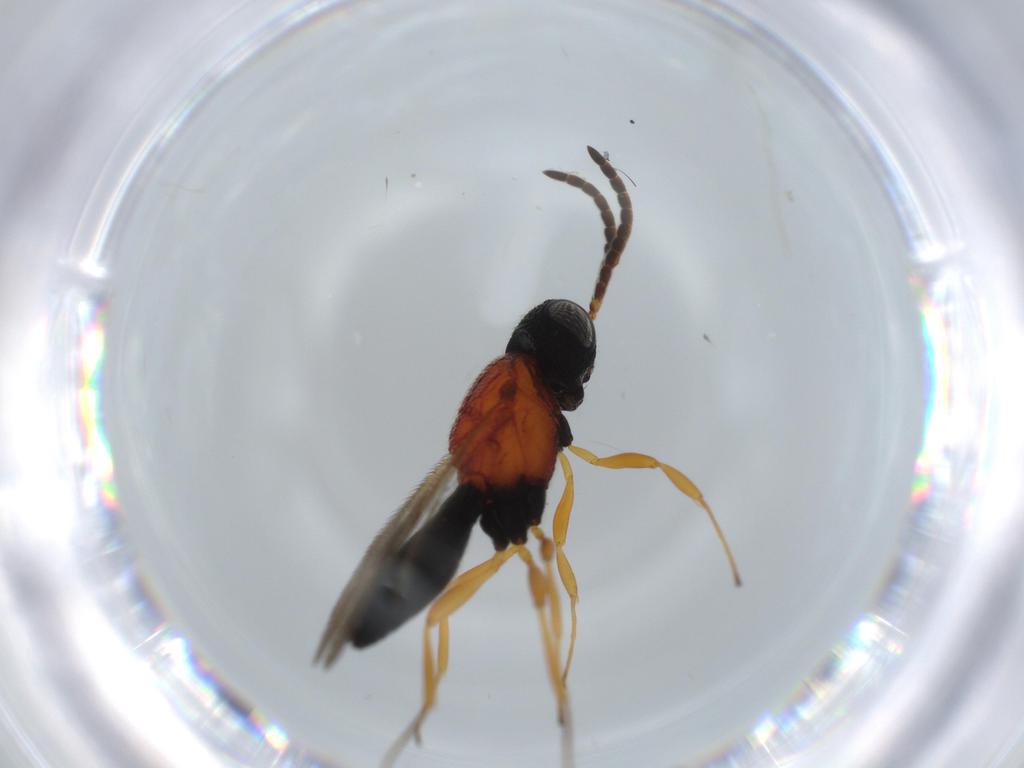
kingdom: Animalia
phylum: Arthropoda
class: Insecta
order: Hymenoptera
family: Scelionidae
